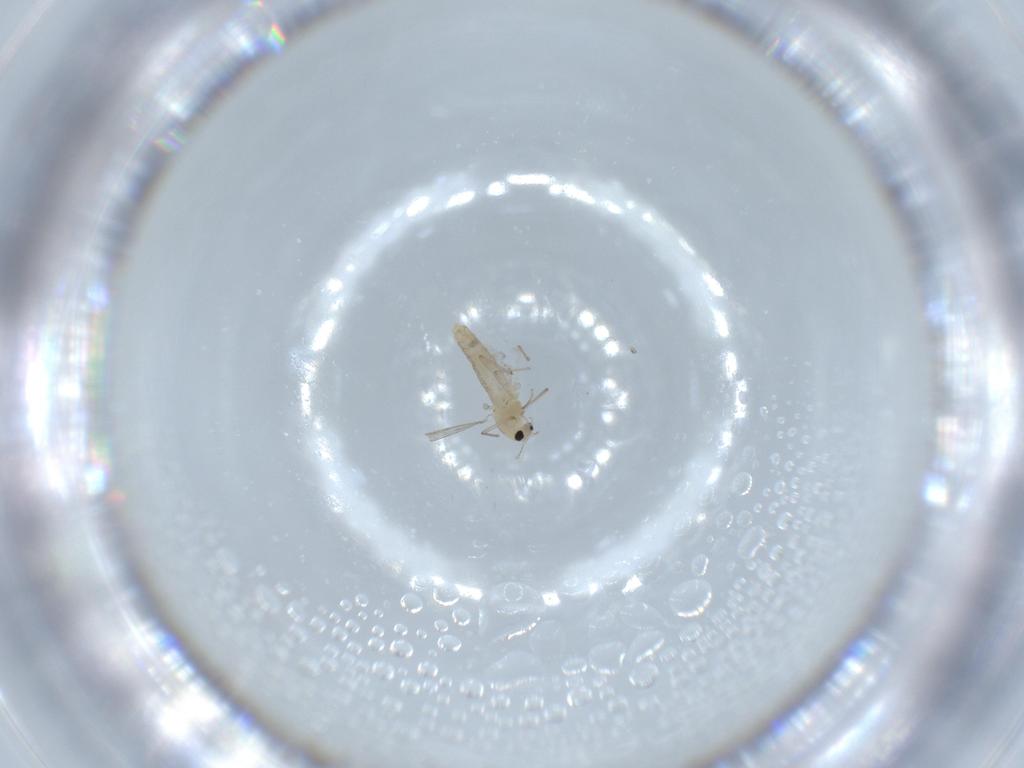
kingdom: Animalia
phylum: Arthropoda
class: Insecta
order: Diptera
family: Chironomidae
